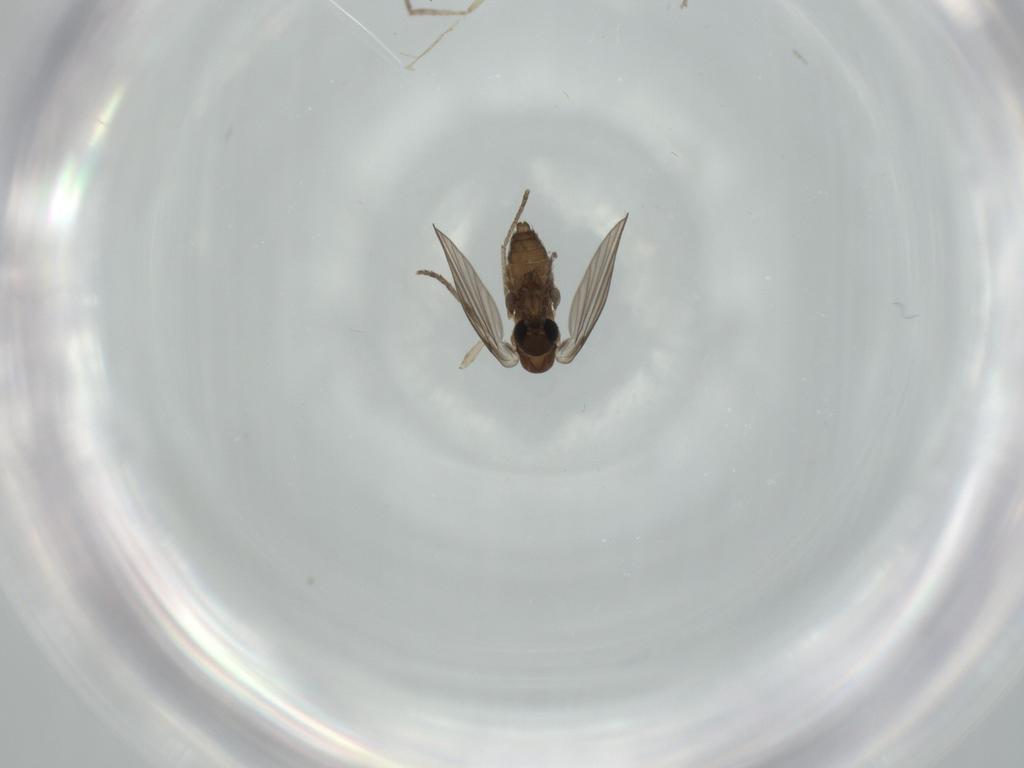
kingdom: Animalia
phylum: Arthropoda
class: Insecta
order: Diptera
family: Psychodidae
